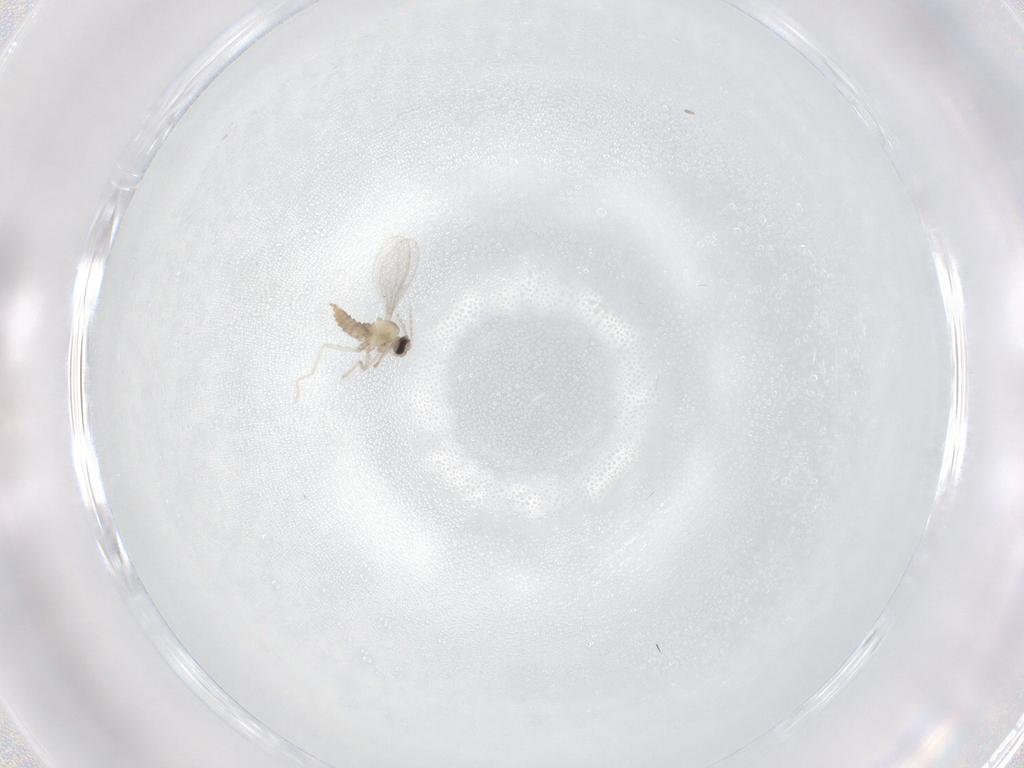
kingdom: Animalia
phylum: Arthropoda
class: Insecta
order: Diptera
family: Cecidomyiidae
